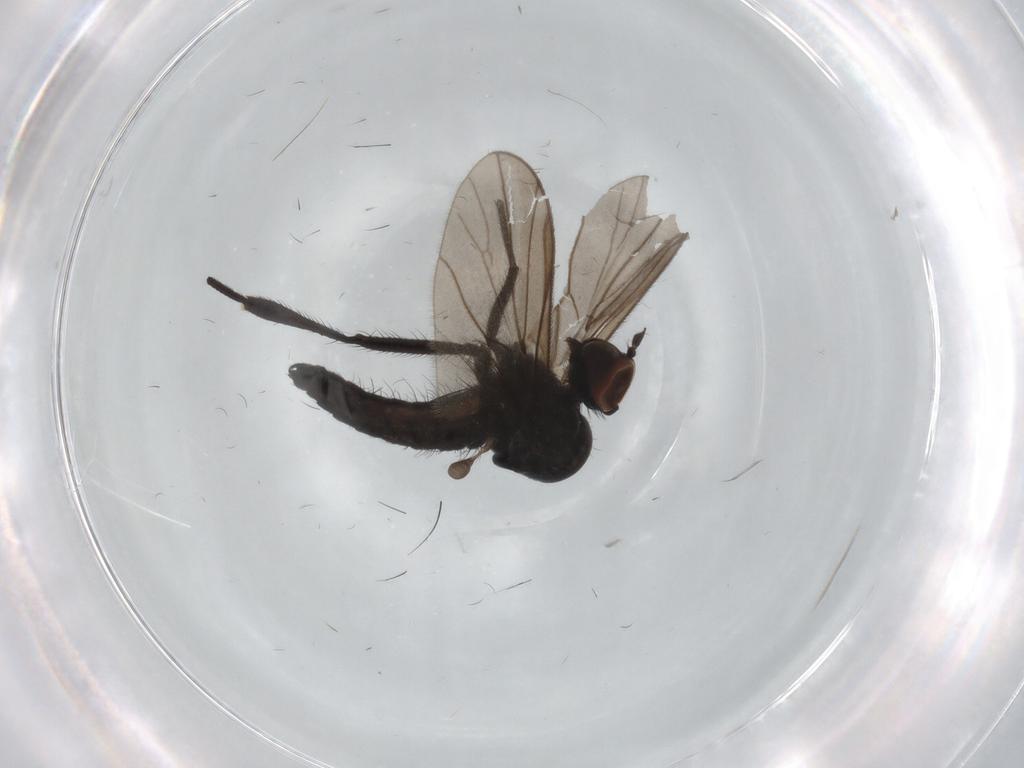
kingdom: Animalia
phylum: Arthropoda
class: Insecta
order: Diptera
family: Hybotidae
